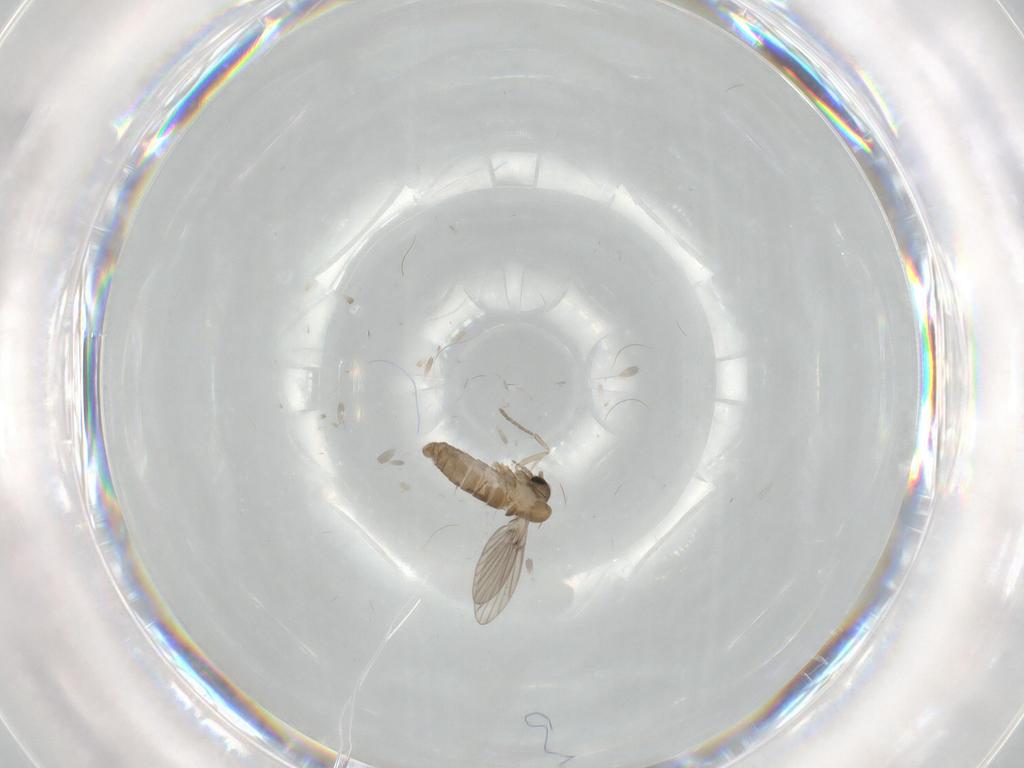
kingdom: Animalia
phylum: Arthropoda
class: Insecta
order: Diptera
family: Psychodidae
